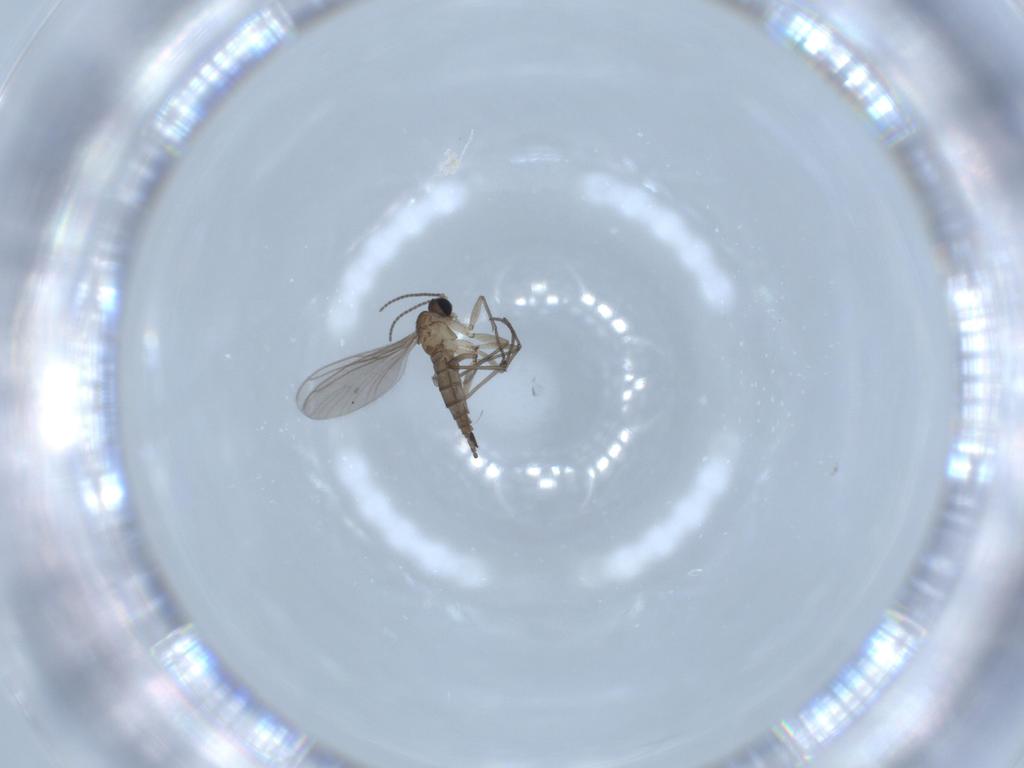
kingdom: Animalia
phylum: Arthropoda
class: Insecta
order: Diptera
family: Sciaridae
